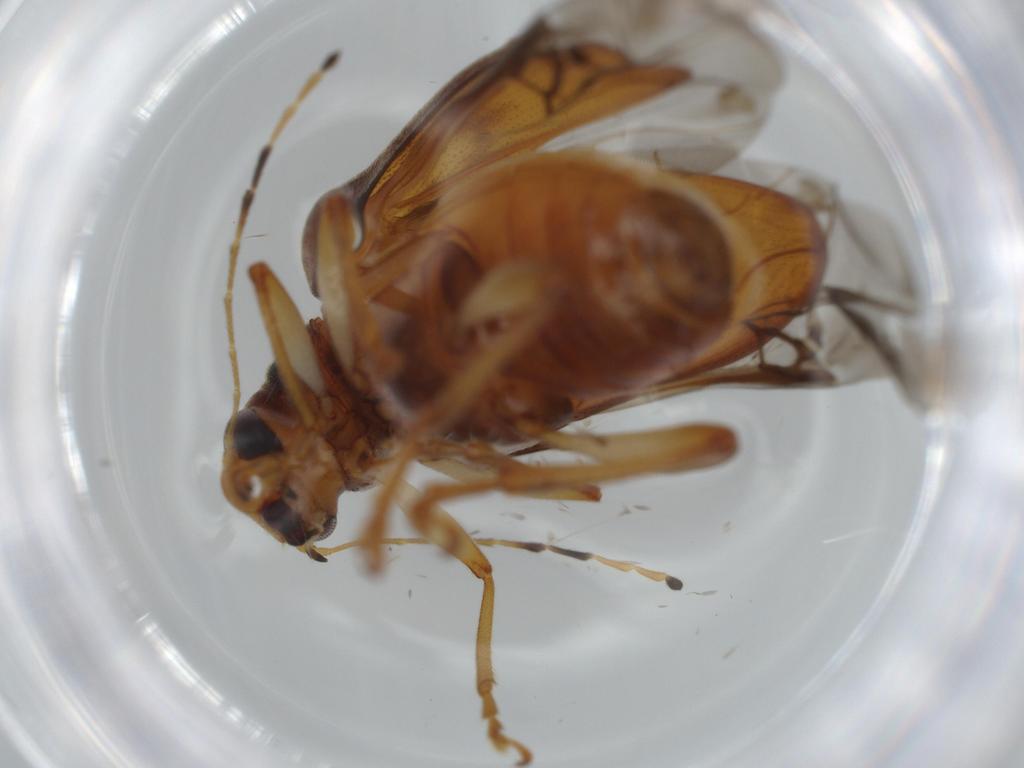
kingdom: Animalia
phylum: Arthropoda
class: Insecta
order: Coleoptera
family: Chrysomelidae
